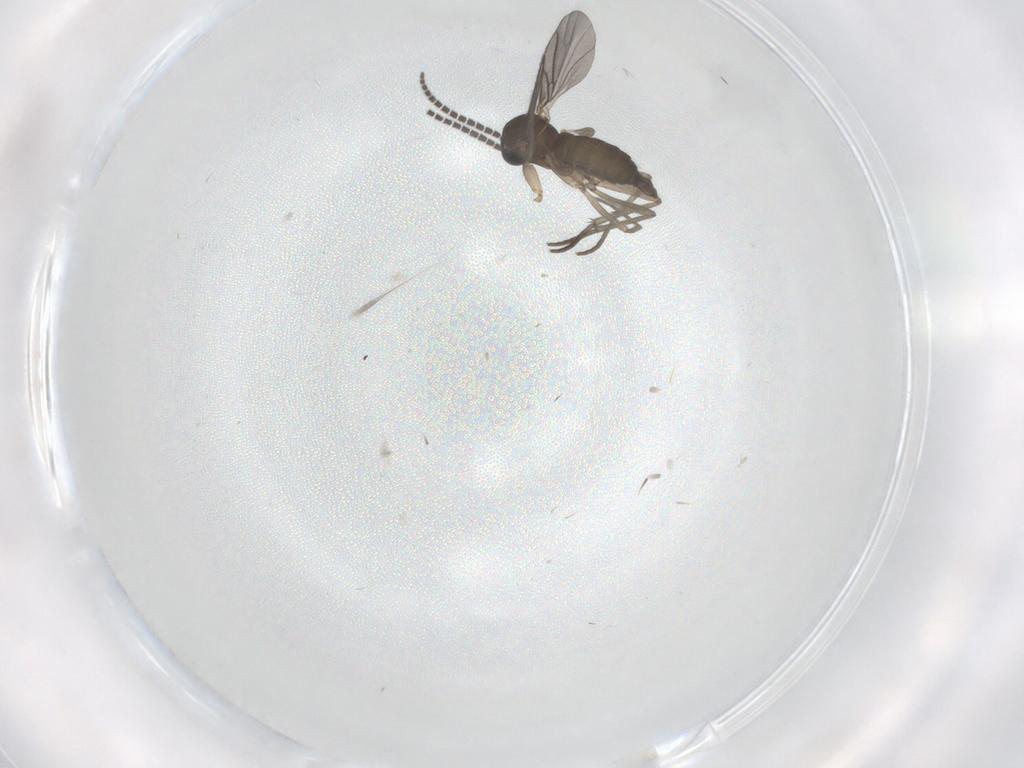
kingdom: Animalia
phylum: Arthropoda
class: Insecta
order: Diptera
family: Sciaridae
